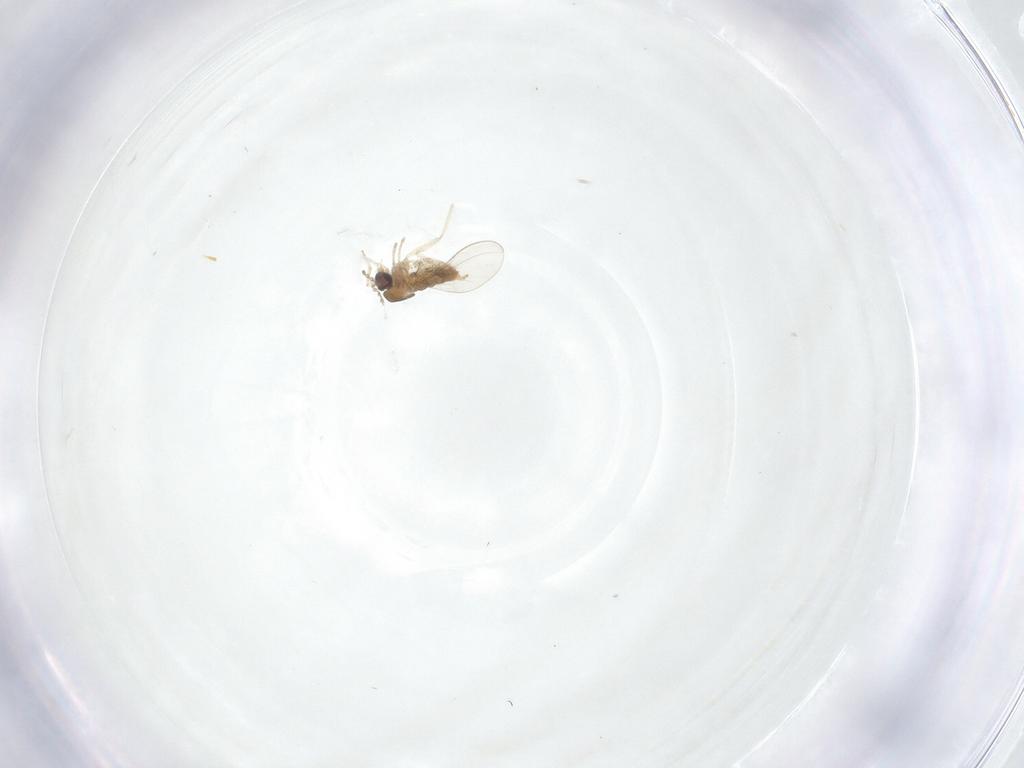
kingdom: Animalia
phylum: Arthropoda
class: Insecta
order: Diptera
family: Cecidomyiidae
